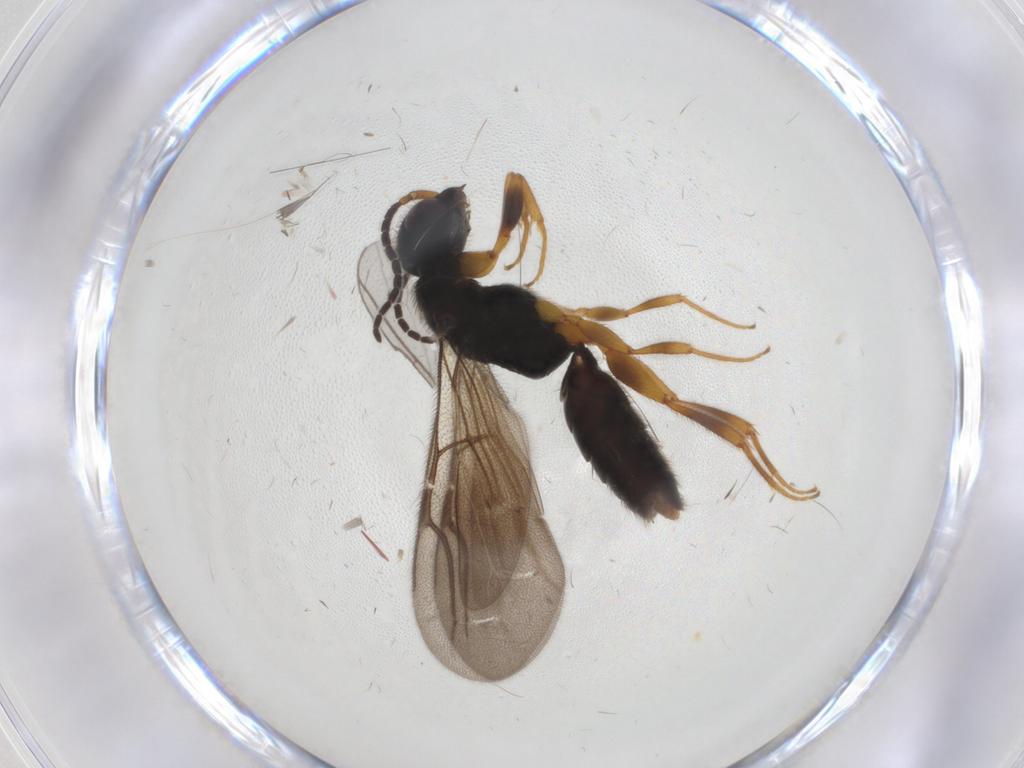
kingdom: Animalia
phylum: Arthropoda
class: Insecta
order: Hymenoptera
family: Bethylidae
